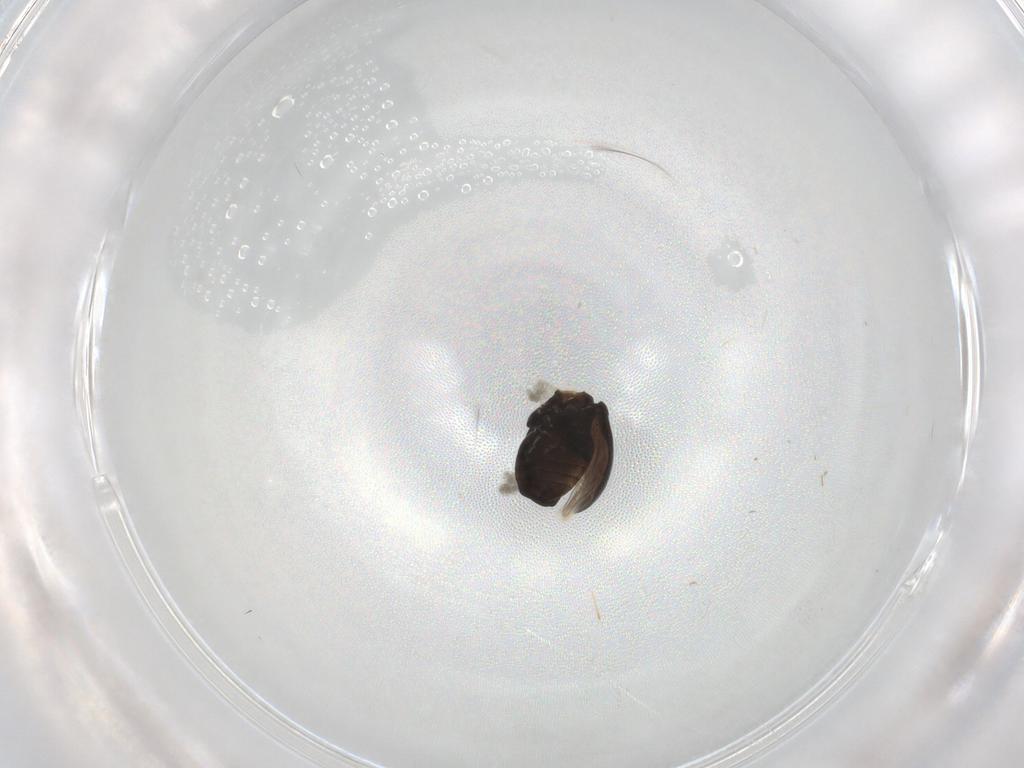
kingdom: Animalia
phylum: Arthropoda
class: Insecta
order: Coleoptera
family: Curculionidae
